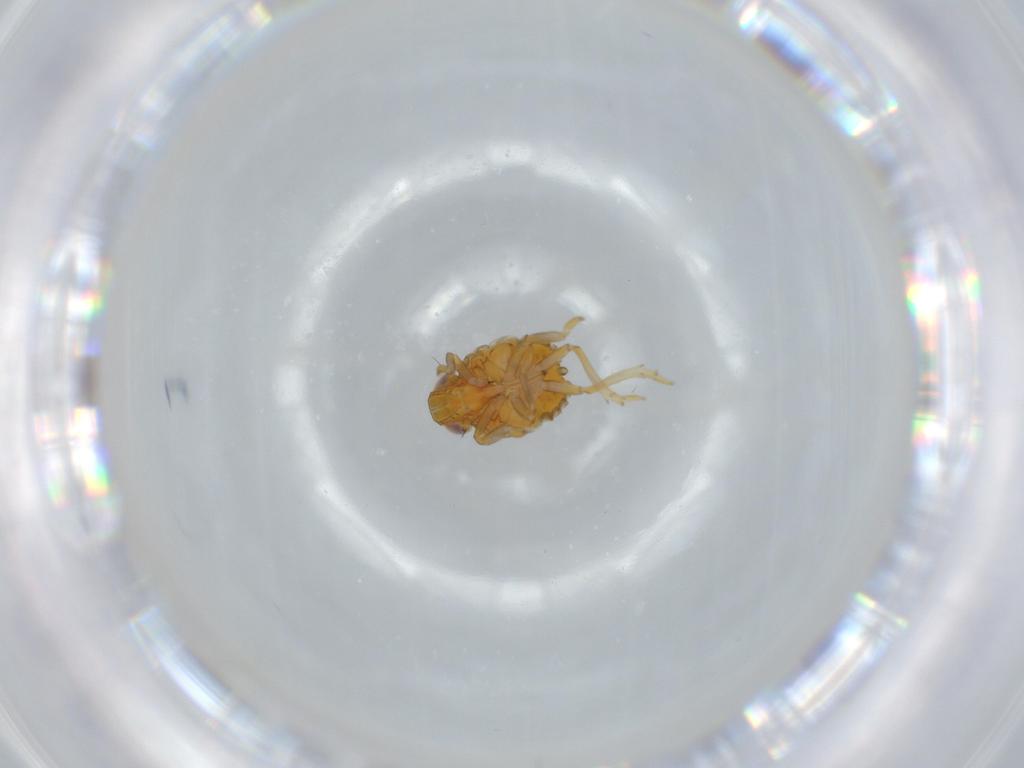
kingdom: Animalia
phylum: Arthropoda
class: Insecta
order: Hemiptera
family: Issidae
